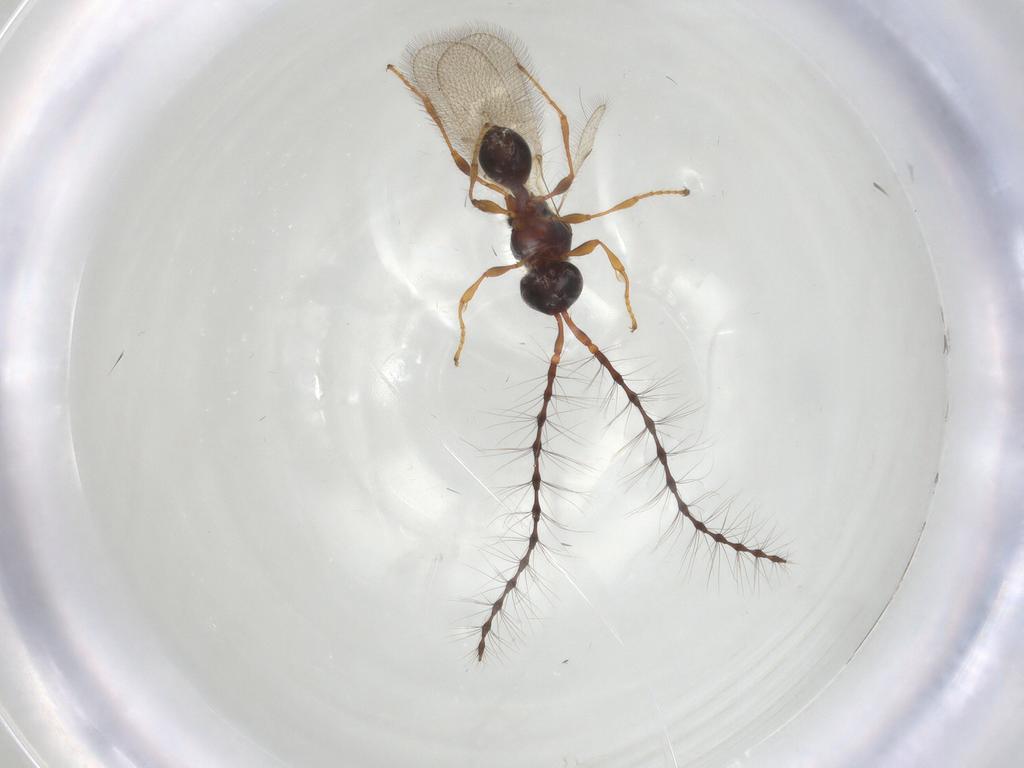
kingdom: Animalia
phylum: Arthropoda
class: Insecta
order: Hymenoptera
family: Diapriidae
